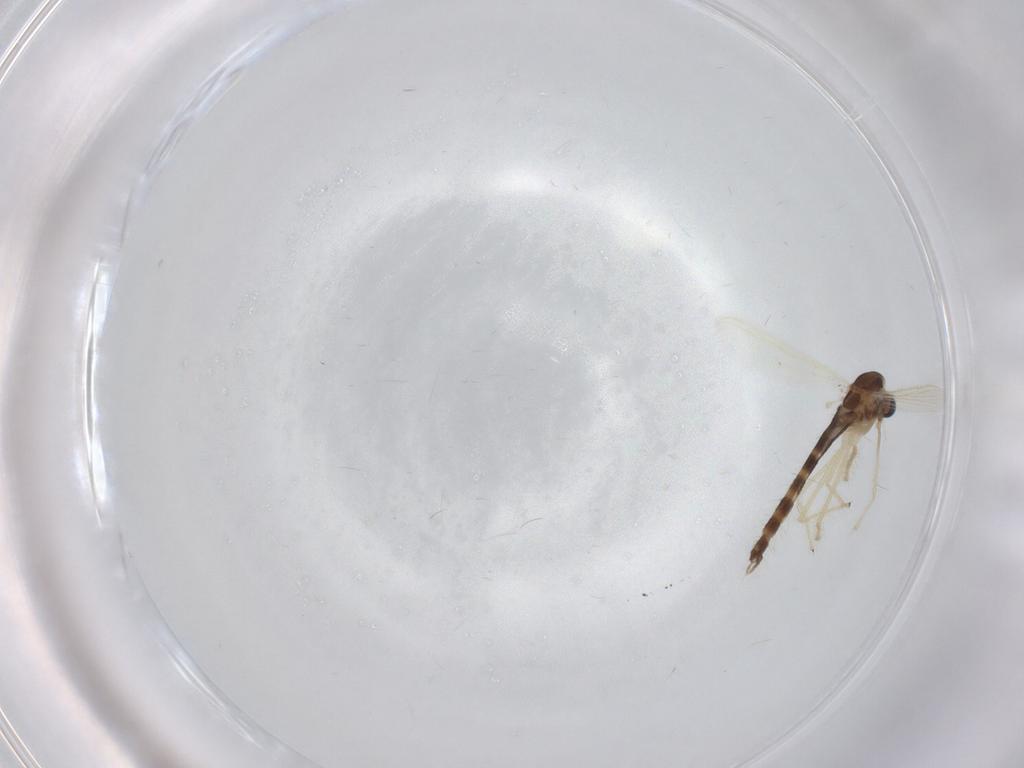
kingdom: Animalia
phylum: Arthropoda
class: Insecta
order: Diptera
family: Chironomidae
